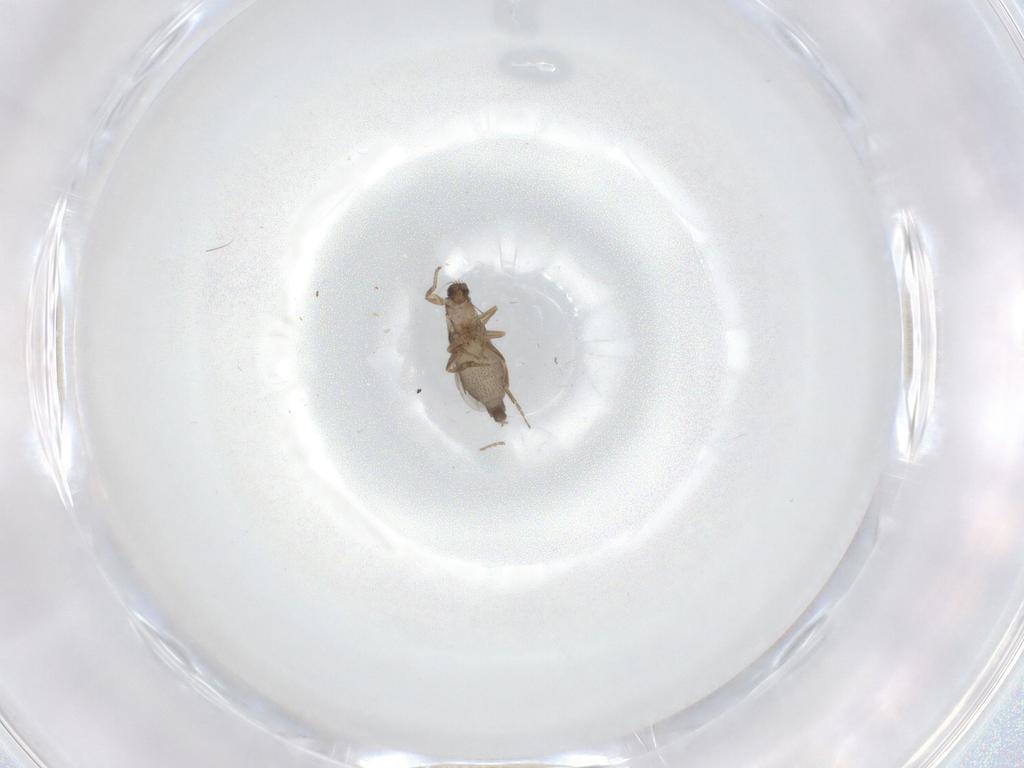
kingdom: Animalia
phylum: Arthropoda
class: Insecta
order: Diptera
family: Phoridae
